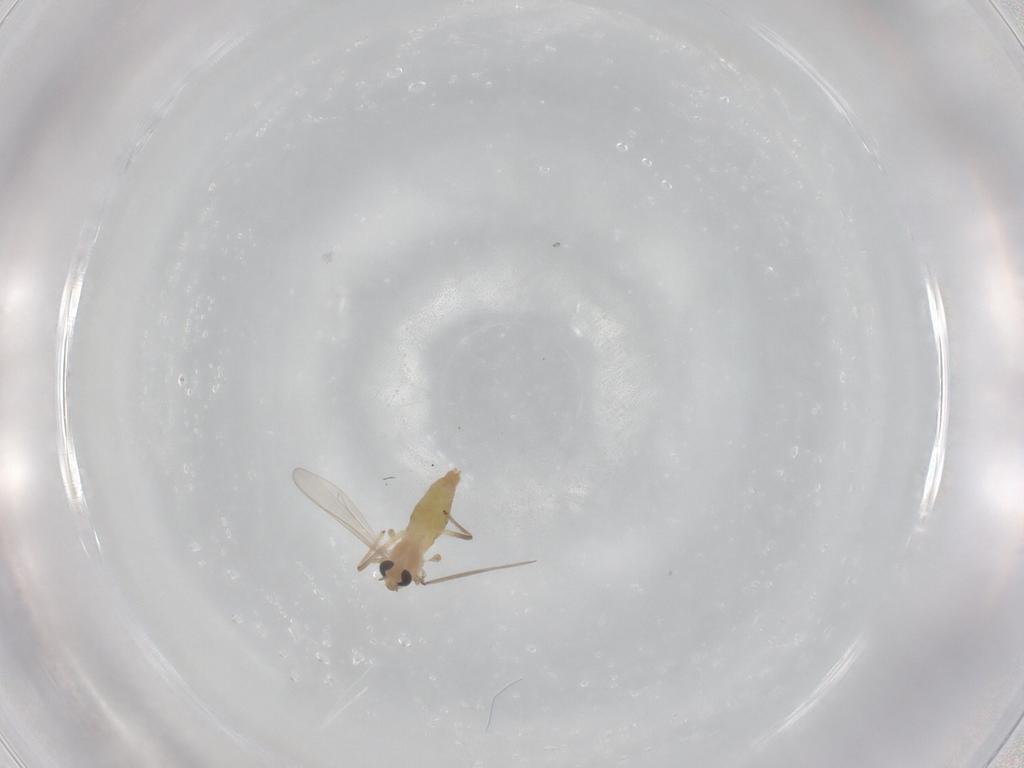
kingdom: Animalia
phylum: Arthropoda
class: Insecta
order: Diptera
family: Chironomidae
